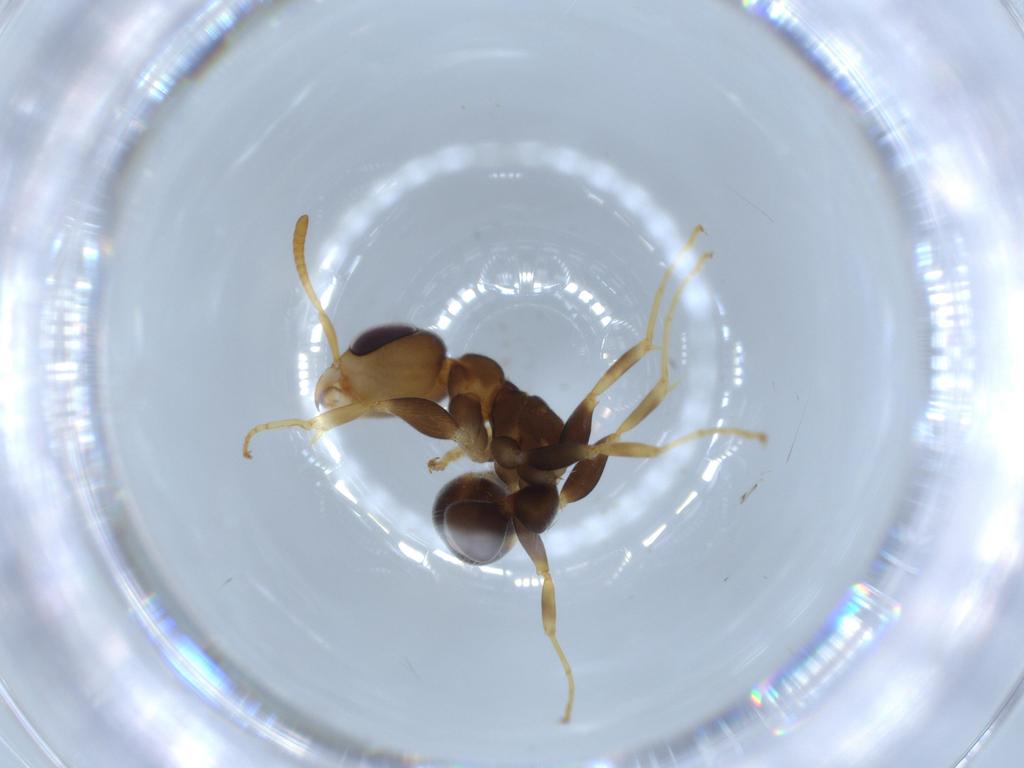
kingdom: Animalia
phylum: Arthropoda
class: Insecta
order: Hymenoptera
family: Formicidae
